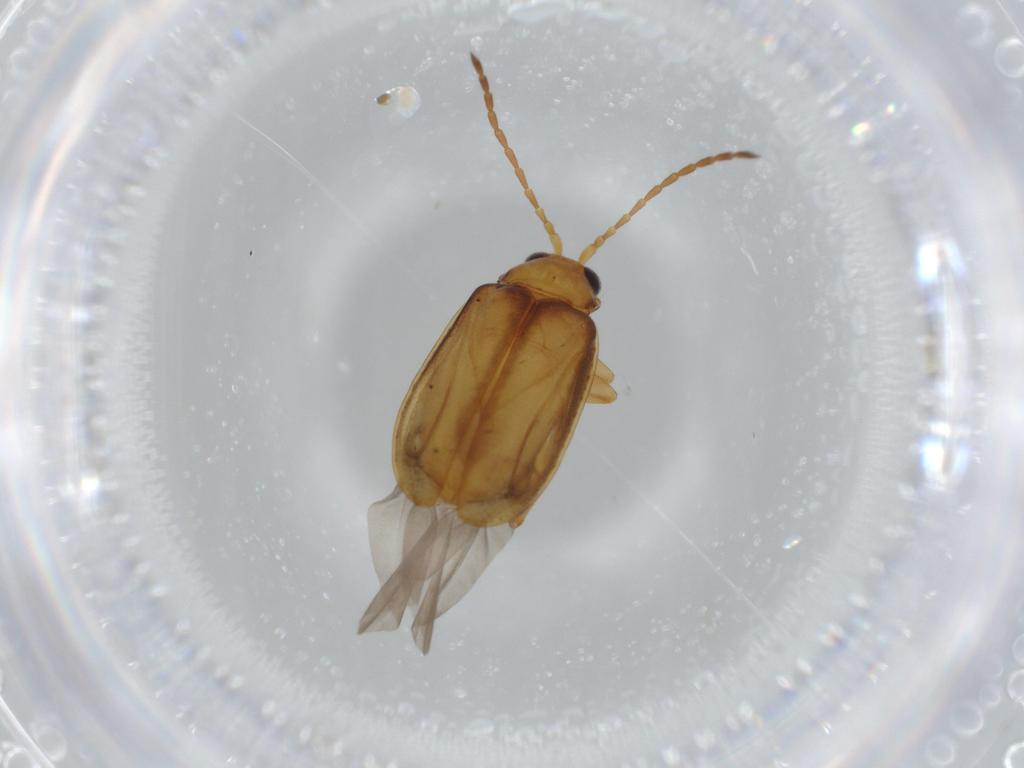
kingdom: Animalia
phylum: Arthropoda
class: Insecta
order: Coleoptera
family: Chrysomelidae
